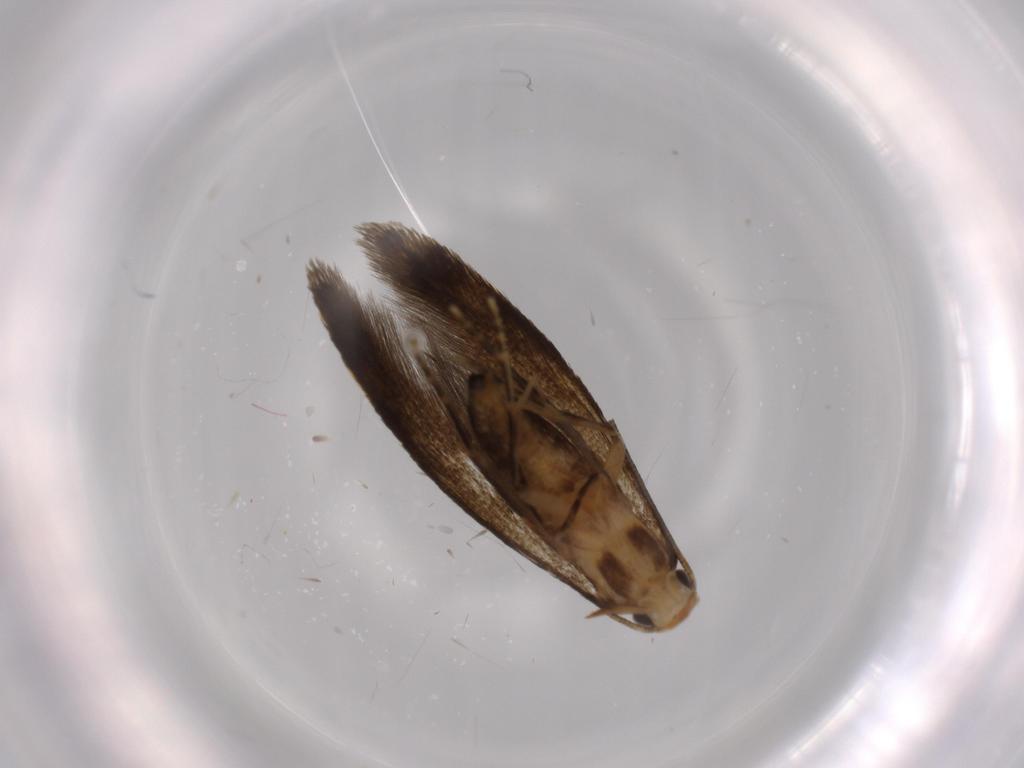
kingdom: Animalia
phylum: Arthropoda
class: Insecta
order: Lepidoptera
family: Tineidae
